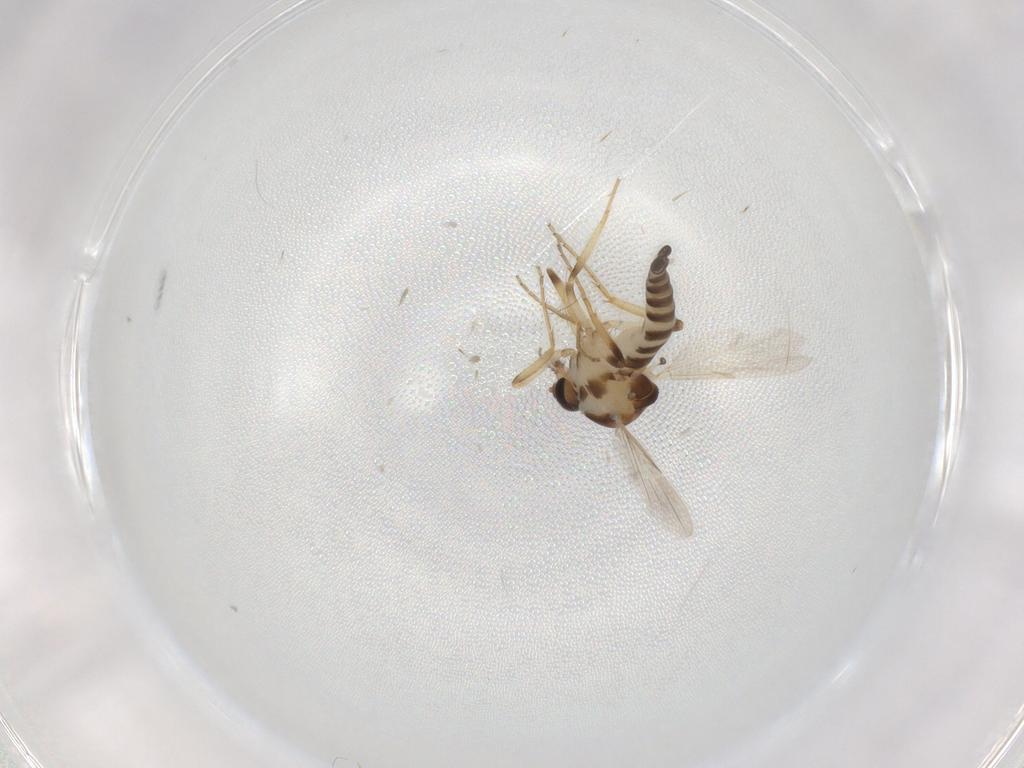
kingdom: Animalia
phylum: Arthropoda
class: Insecta
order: Diptera
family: Ceratopogonidae
